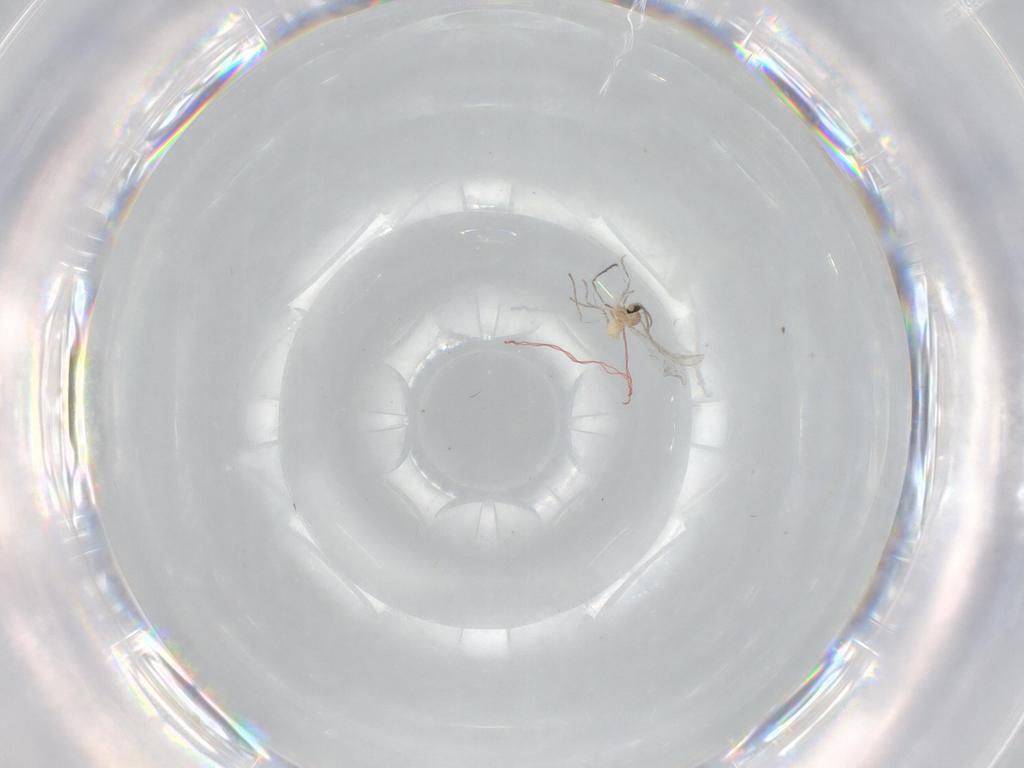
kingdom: Animalia
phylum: Arthropoda
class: Insecta
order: Diptera
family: Cecidomyiidae
